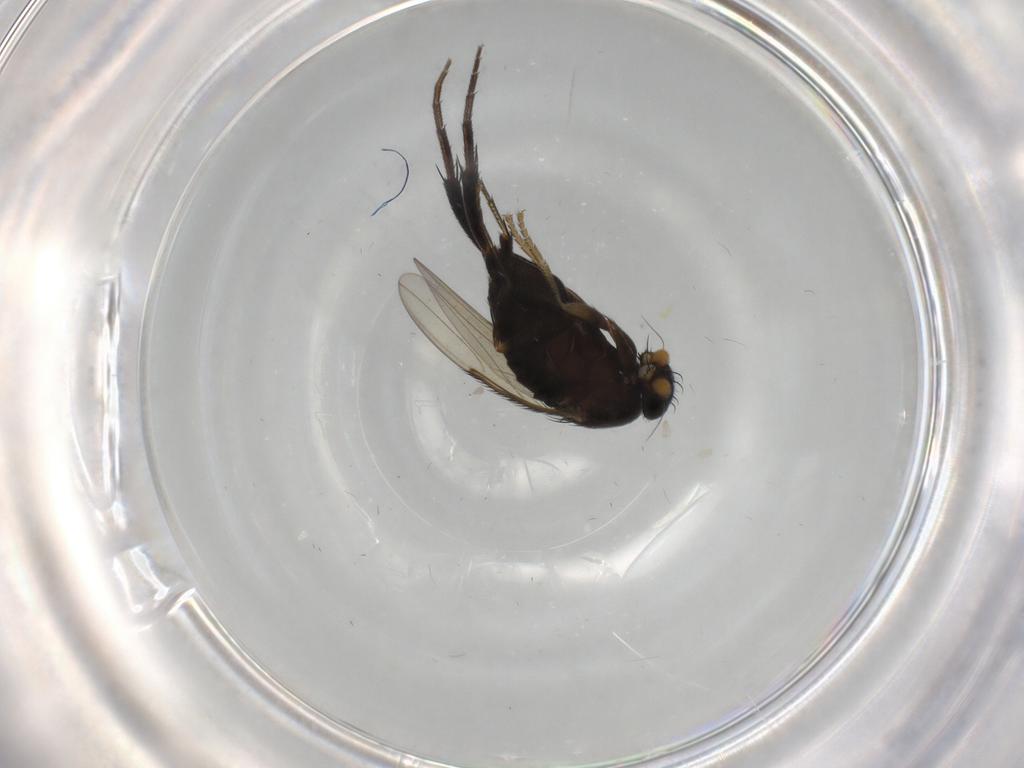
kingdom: Animalia
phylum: Arthropoda
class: Insecta
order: Diptera
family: Phoridae
